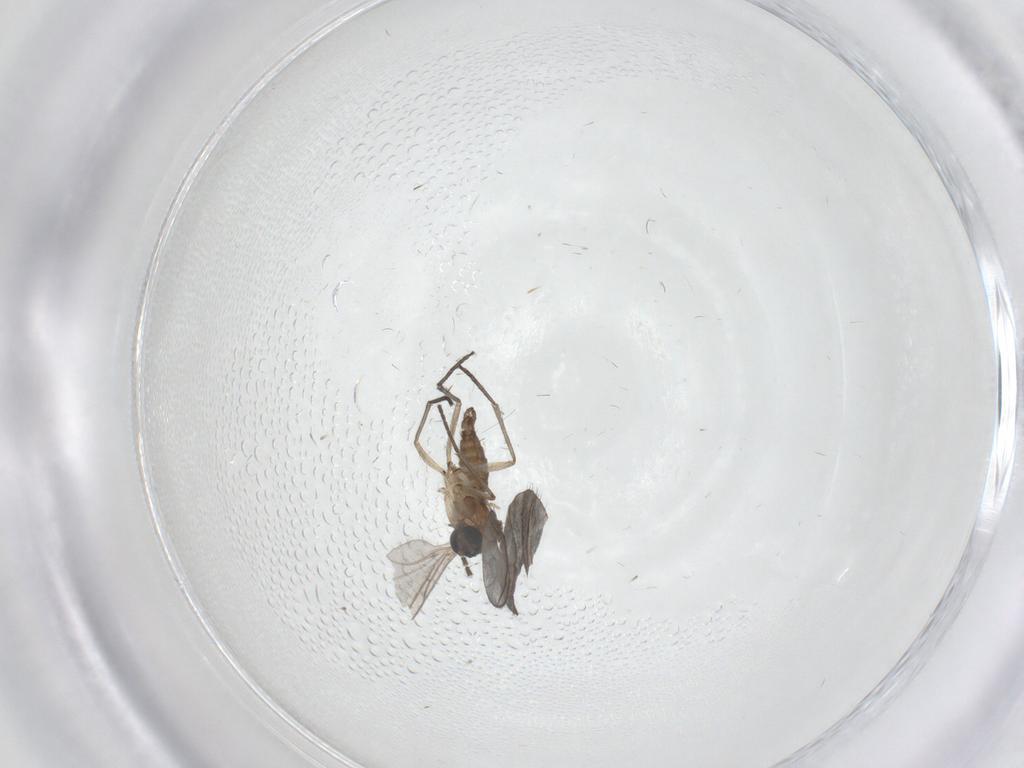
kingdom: Animalia
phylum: Arthropoda
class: Insecta
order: Diptera
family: Sciaridae
